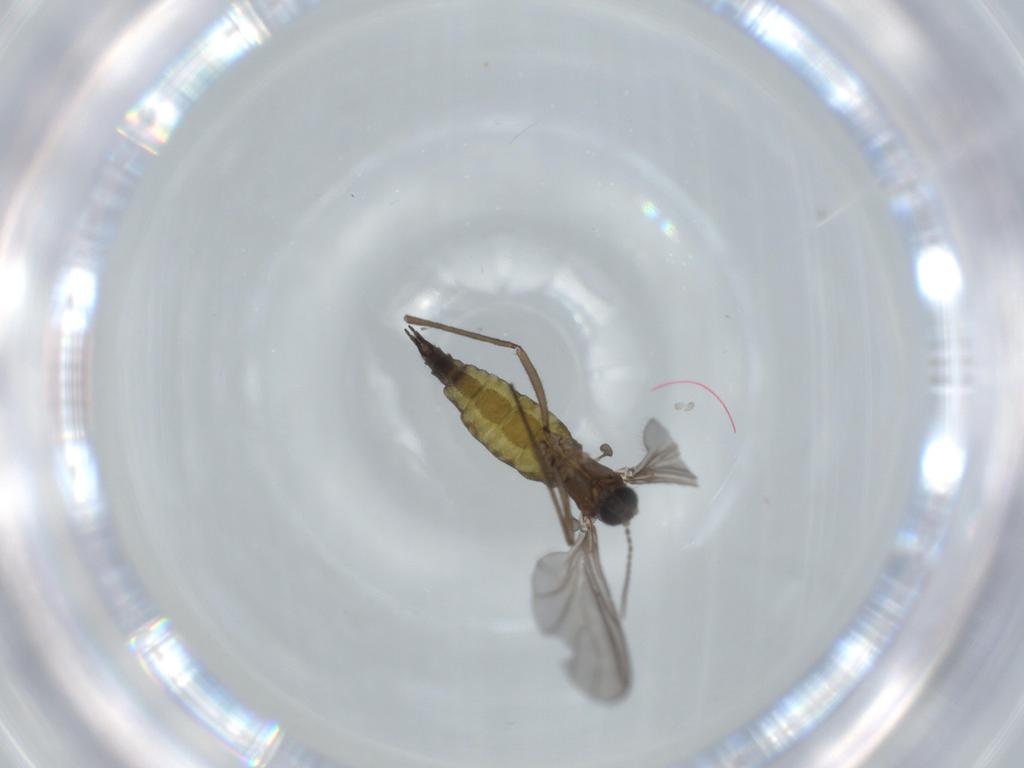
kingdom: Animalia
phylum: Arthropoda
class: Insecta
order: Diptera
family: Sciaridae
